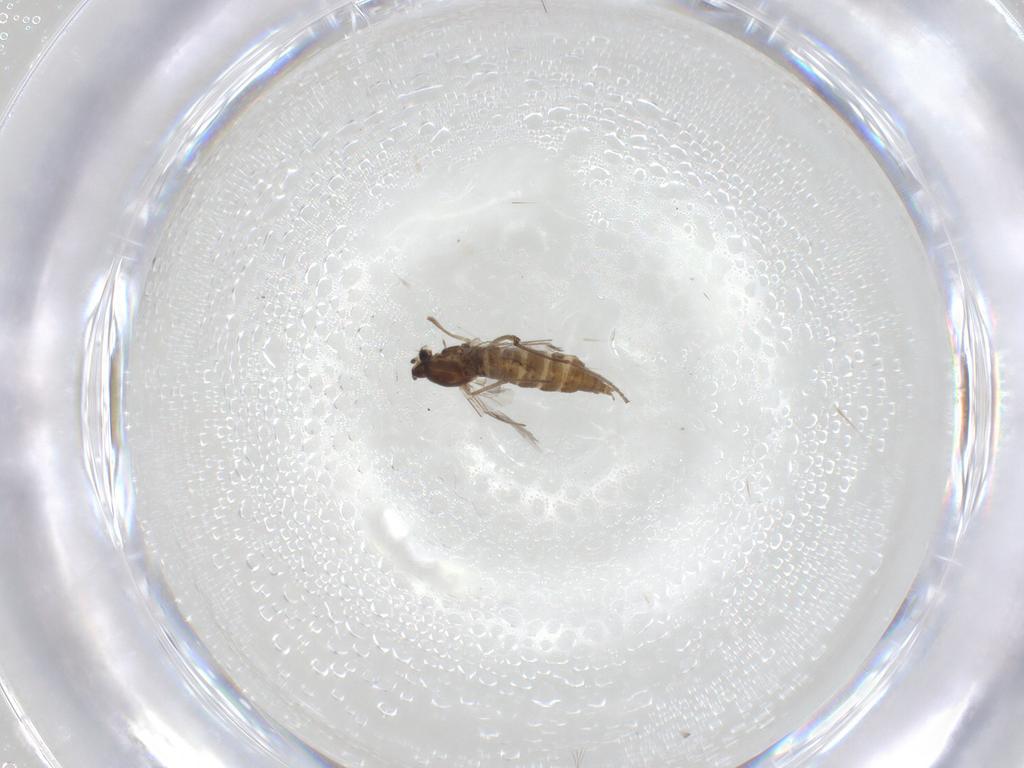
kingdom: Animalia
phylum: Arthropoda
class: Insecta
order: Diptera
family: Cecidomyiidae
